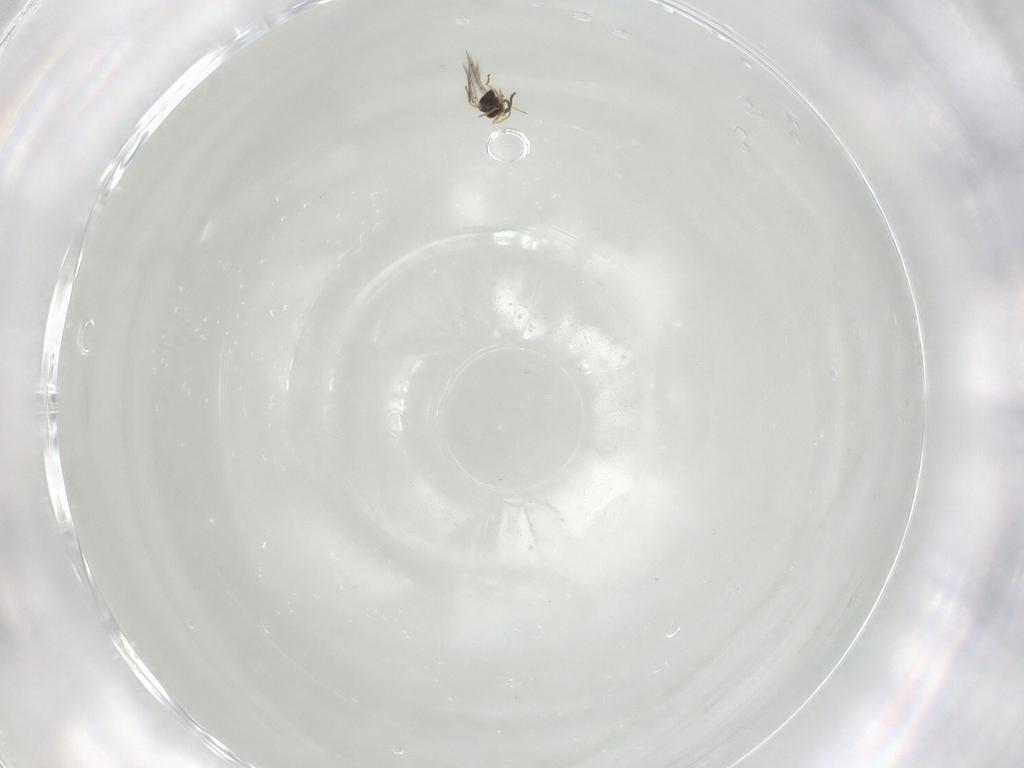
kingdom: Animalia
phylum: Arthropoda
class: Insecta
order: Hymenoptera
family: Mymaridae
